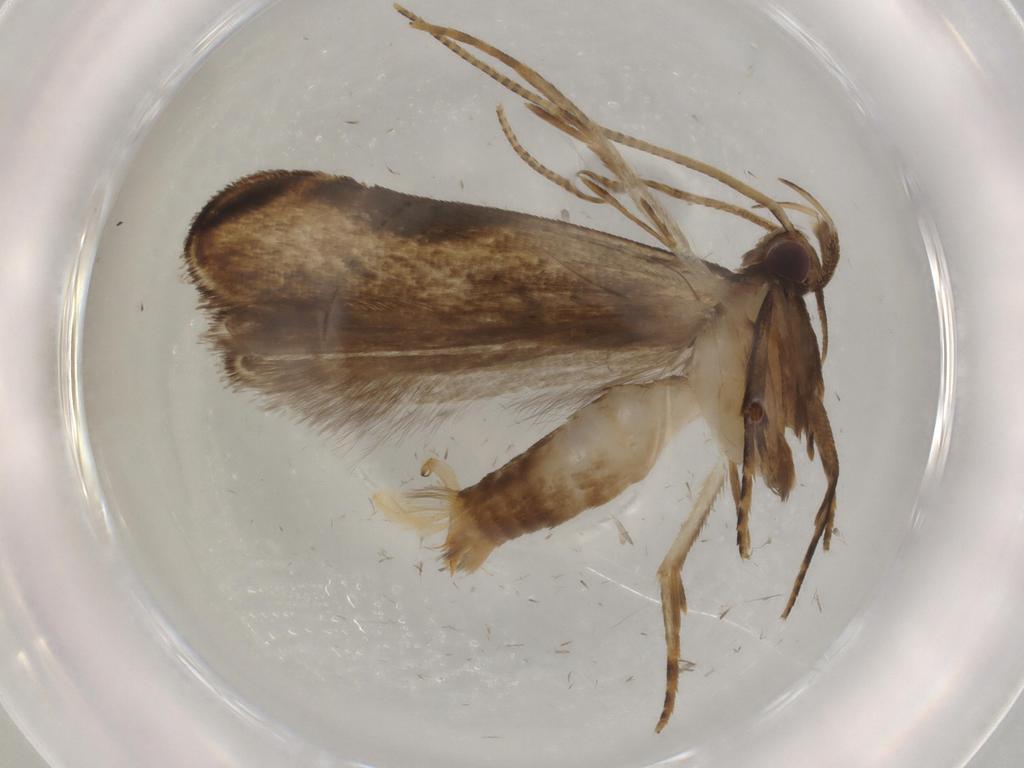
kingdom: Animalia
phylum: Arthropoda
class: Insecta
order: Lepidoptera
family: Gelechiidae
